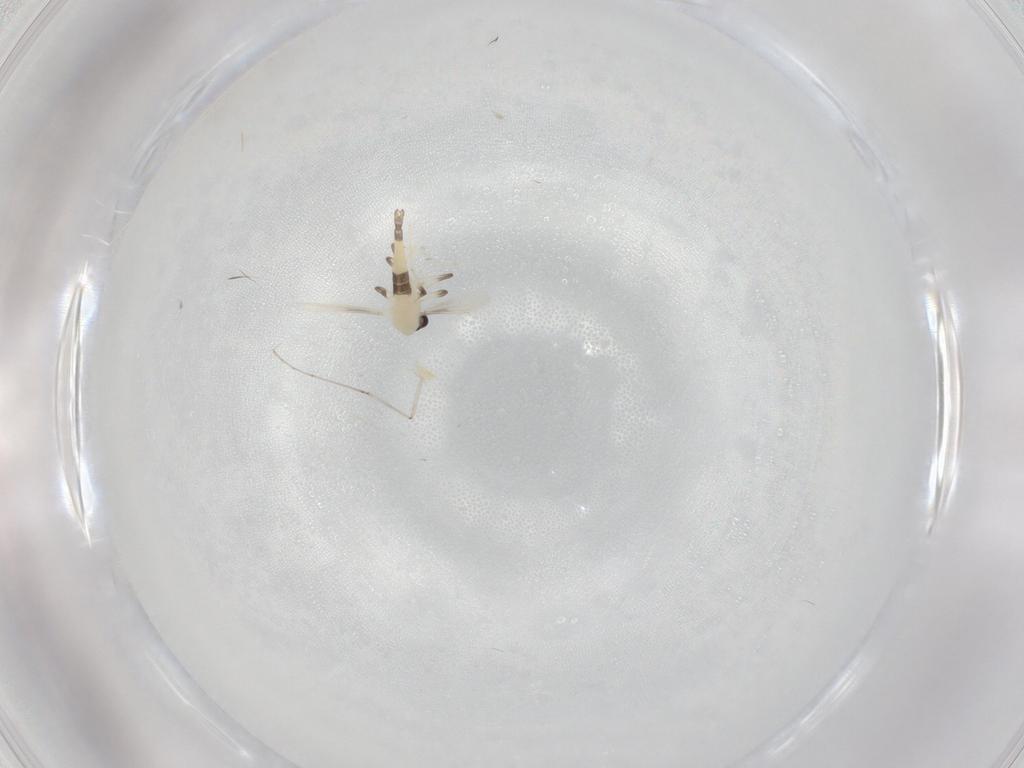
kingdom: Animalia
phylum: Arthropoda
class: Insecta
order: Diptera
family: Chironomidae
